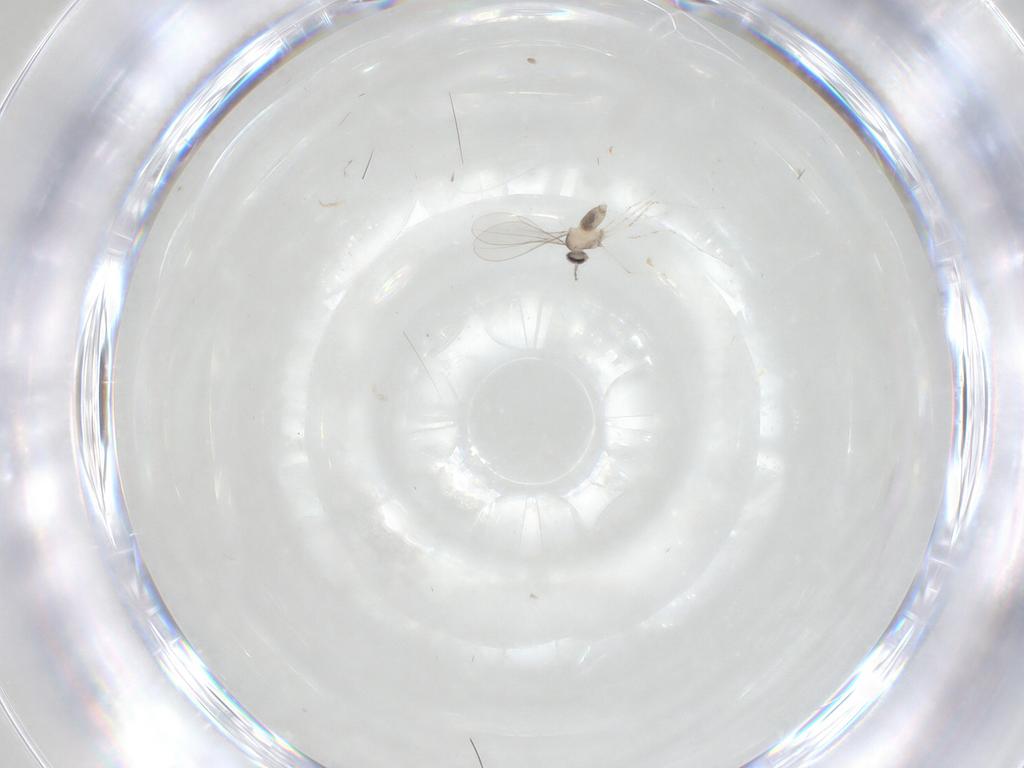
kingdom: Animalia
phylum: Arthropoda
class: Insecta
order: Diptera
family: Cecidomyiidae
